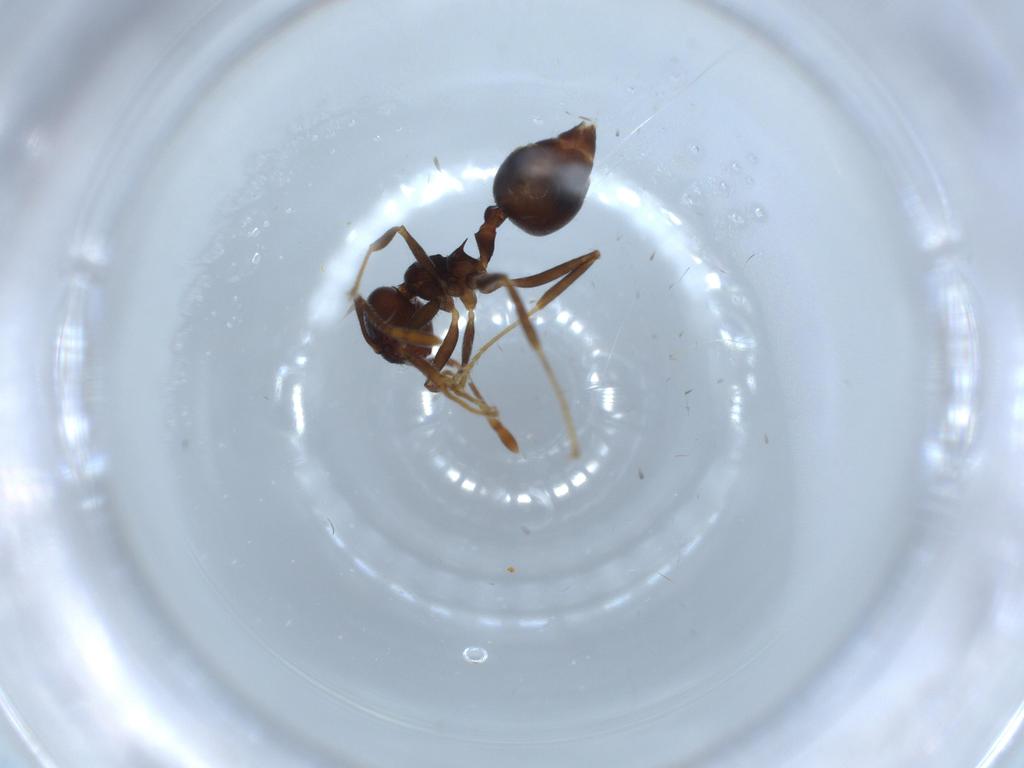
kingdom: Animalia
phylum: Arthropoda
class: Insecta
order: Hymenoptera
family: Formicidae
